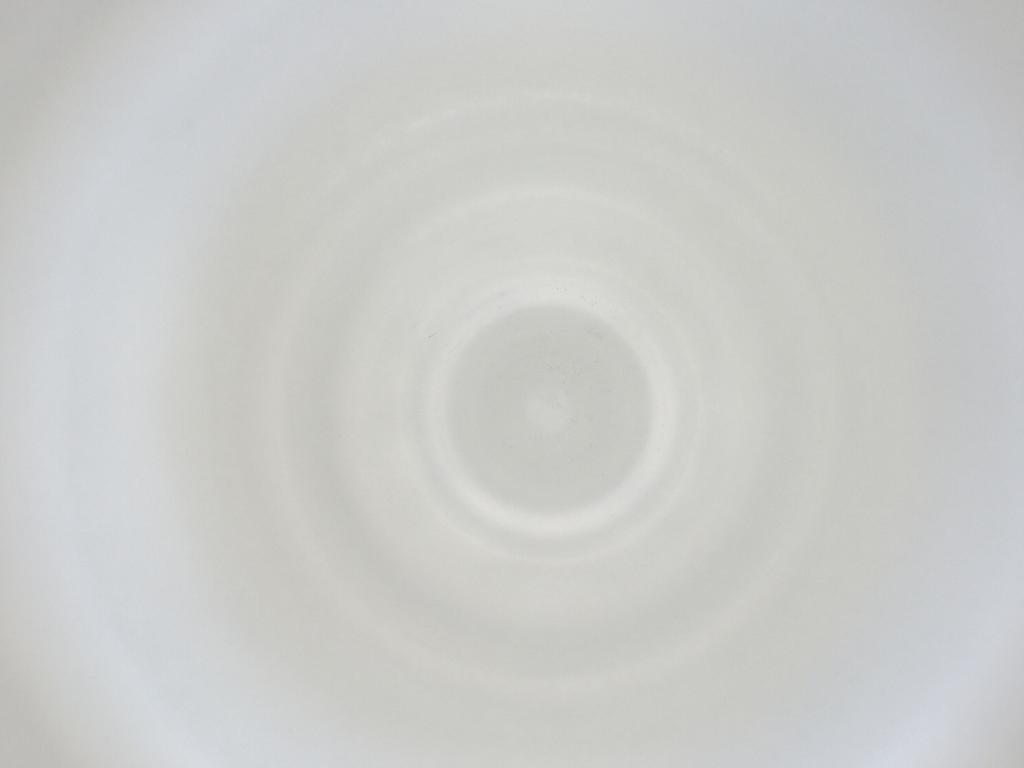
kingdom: Animalia
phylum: Arthropoda
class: Insecta
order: Diptera
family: Cecidomyiidae
